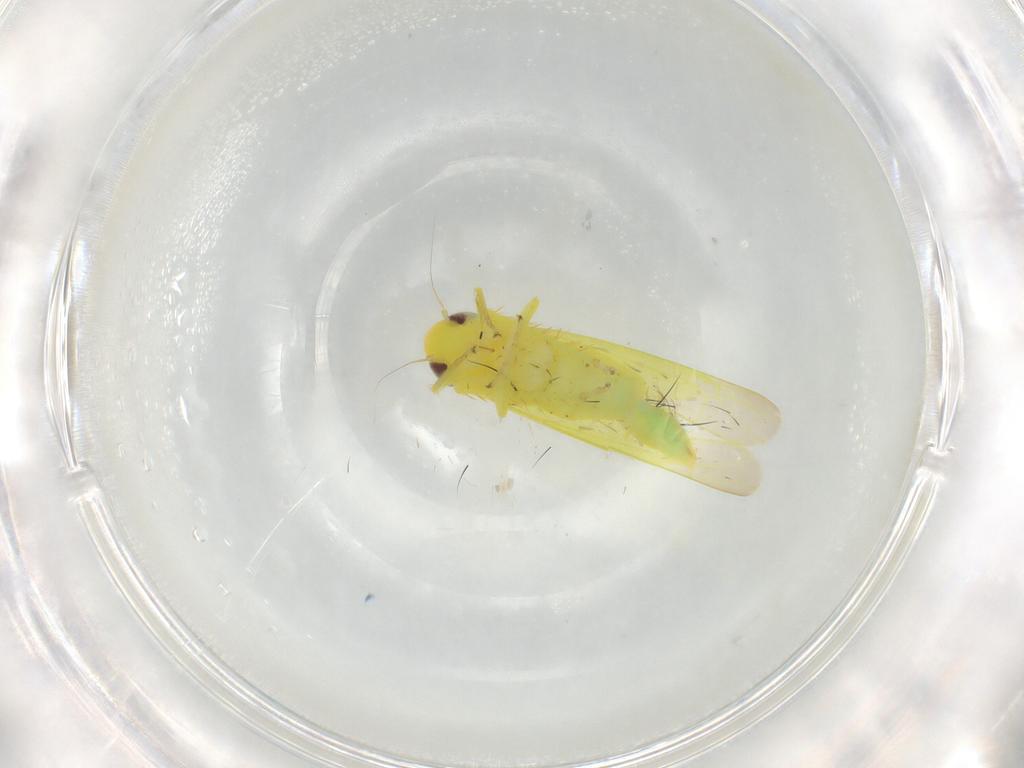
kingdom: Animalia
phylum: Arthropoda
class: Insecta
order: Hemiptera
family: Cicadellidae
